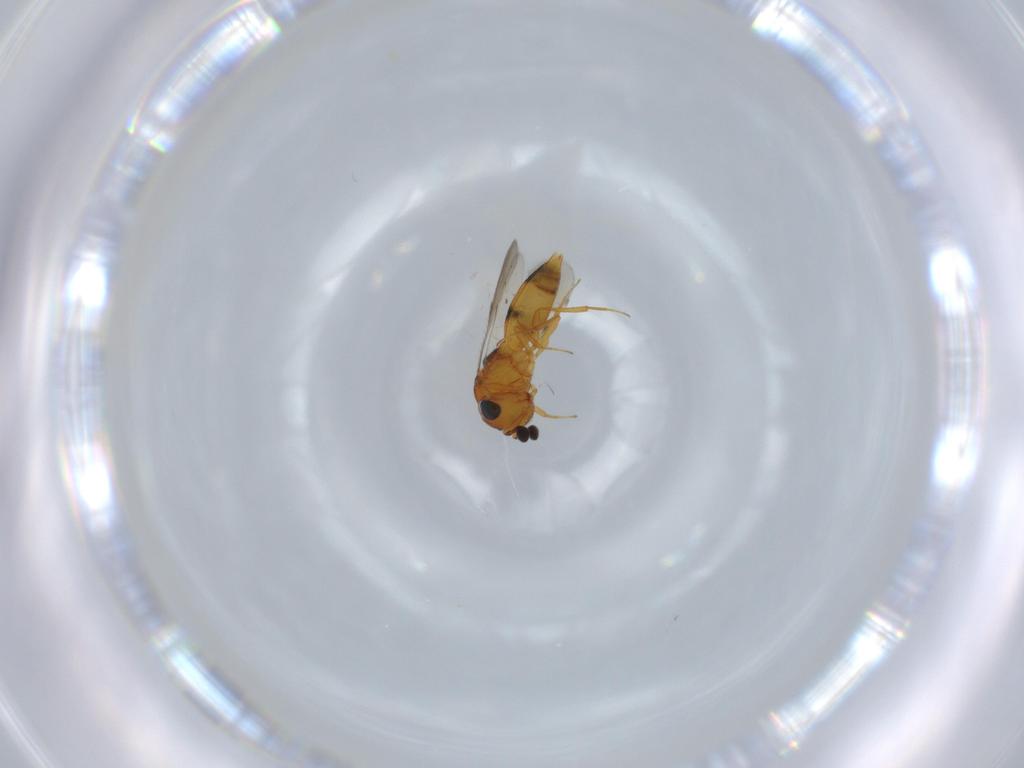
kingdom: Animalia
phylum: Arthropoda
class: Insecta
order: Hymenoptera
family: Scelionidae
